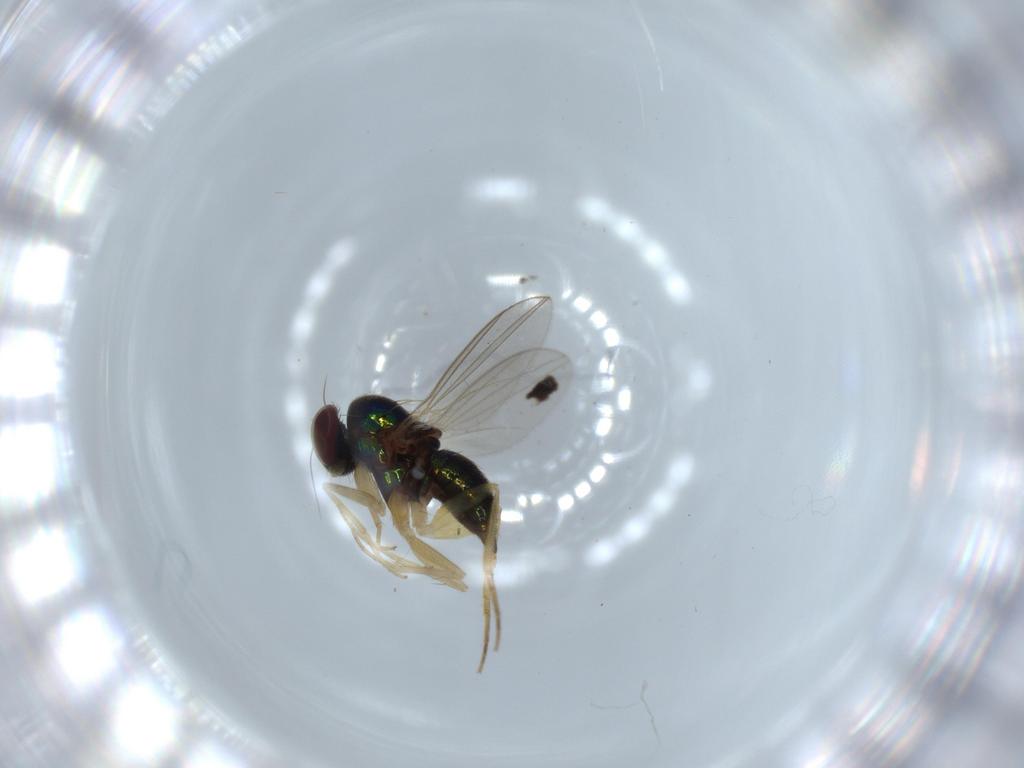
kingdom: Animalia
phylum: Arthropoda
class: Insecta
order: Diptera
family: Dolichopodidae
